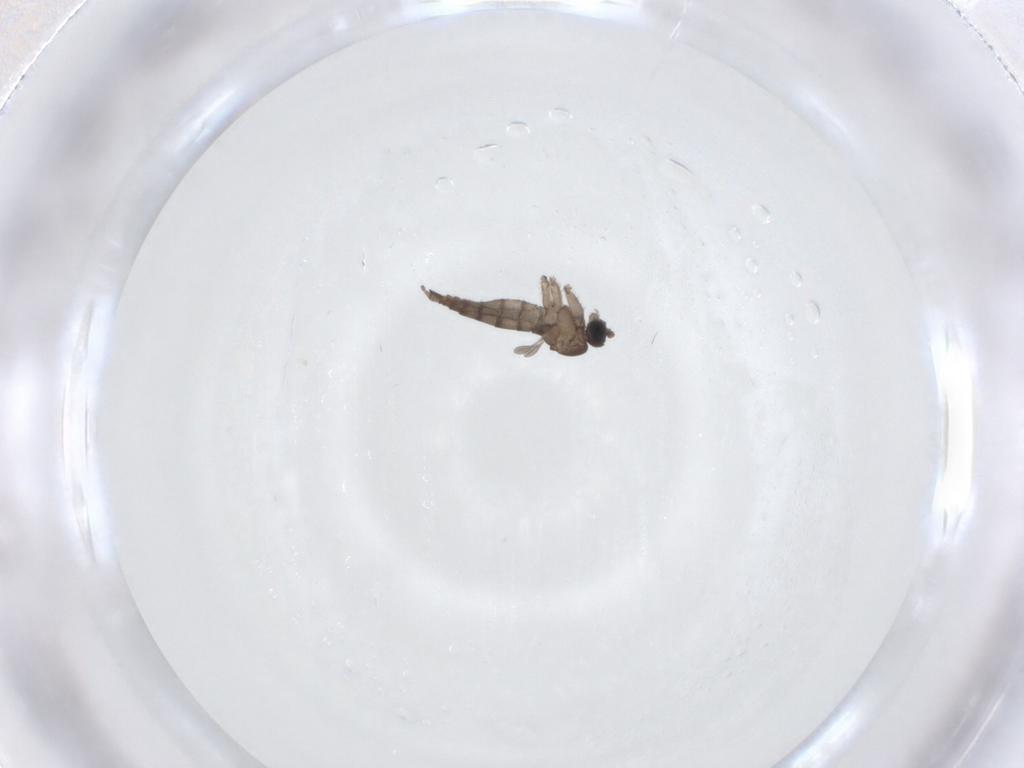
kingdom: Animalia
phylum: Arthropoda
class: Insecta
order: Diptera
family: Sciaridae
